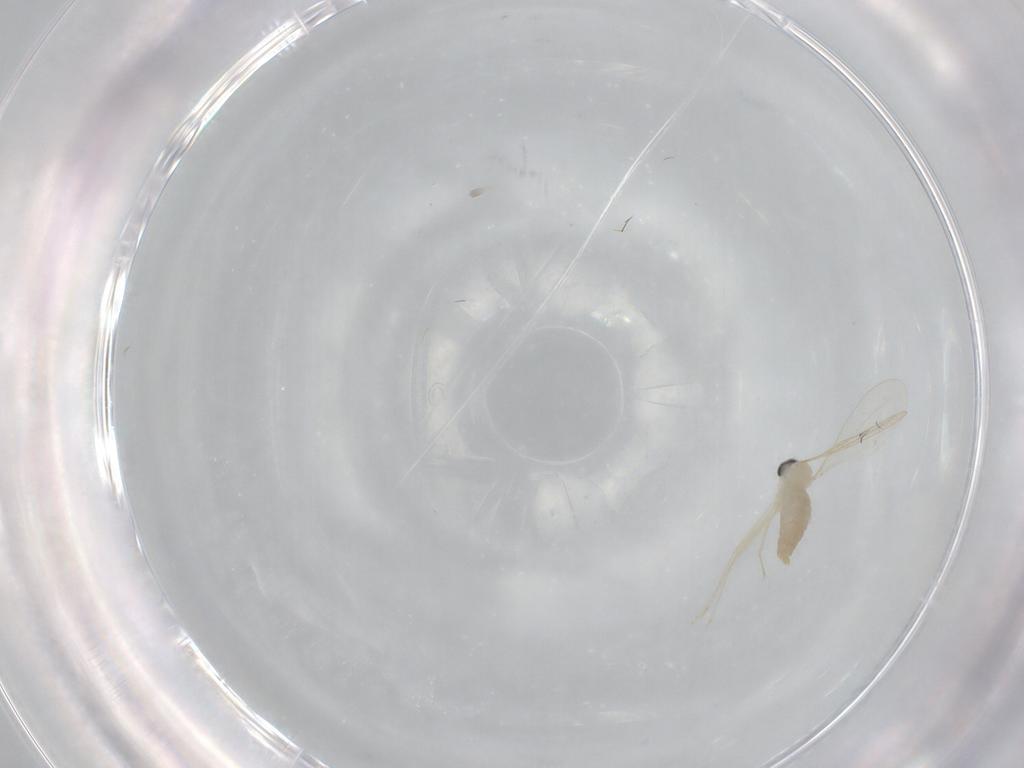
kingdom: Animalia
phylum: Arthropoda
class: Insecta
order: Diptera
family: Cecidomyiidae
